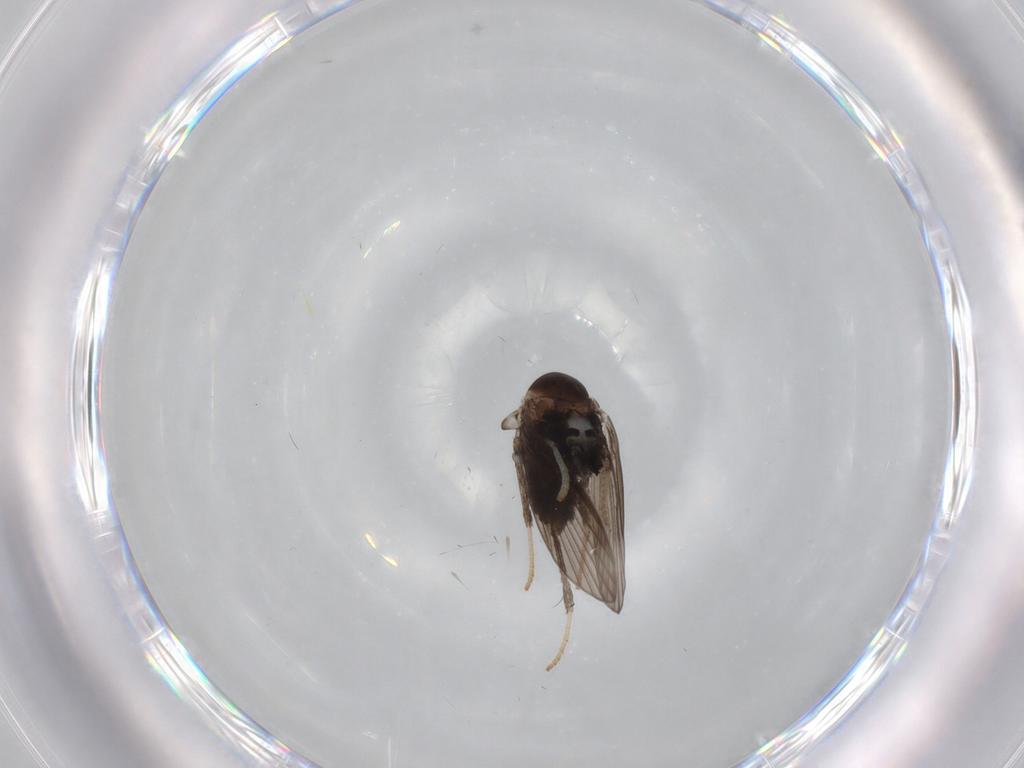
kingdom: Animalia
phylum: Arthropoda
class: Insecta
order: Diptera
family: Psychodidae
